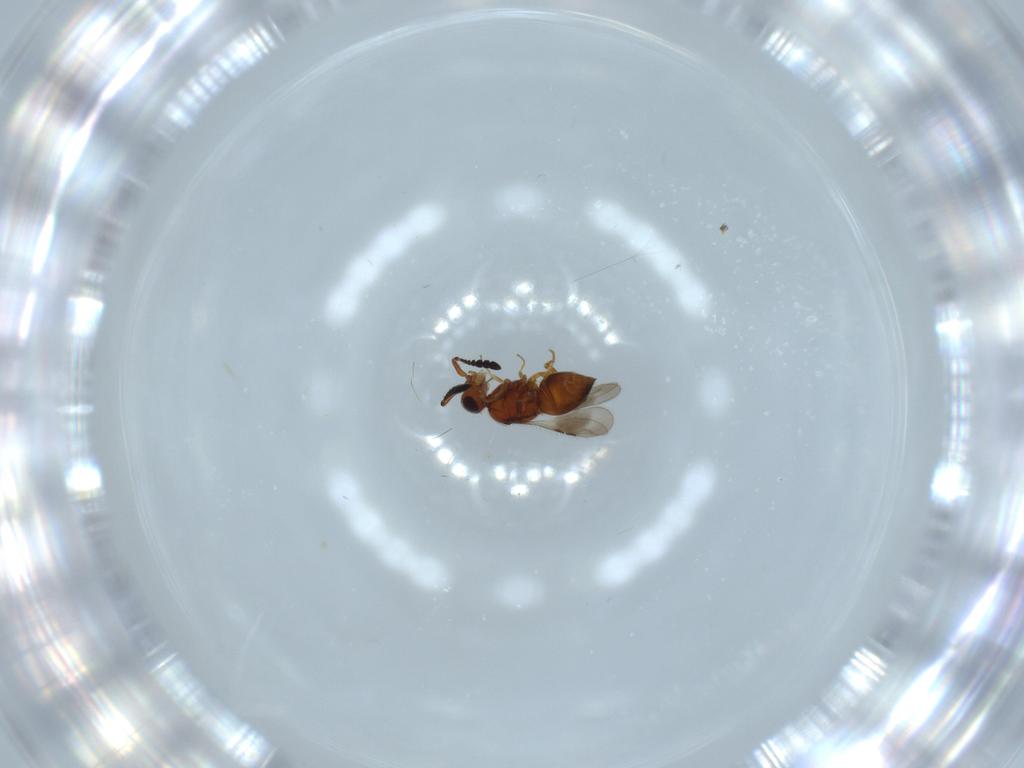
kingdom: Animalia
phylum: Arthropoda
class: Insecta
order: Hymenoptera
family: Ceraphronidae
